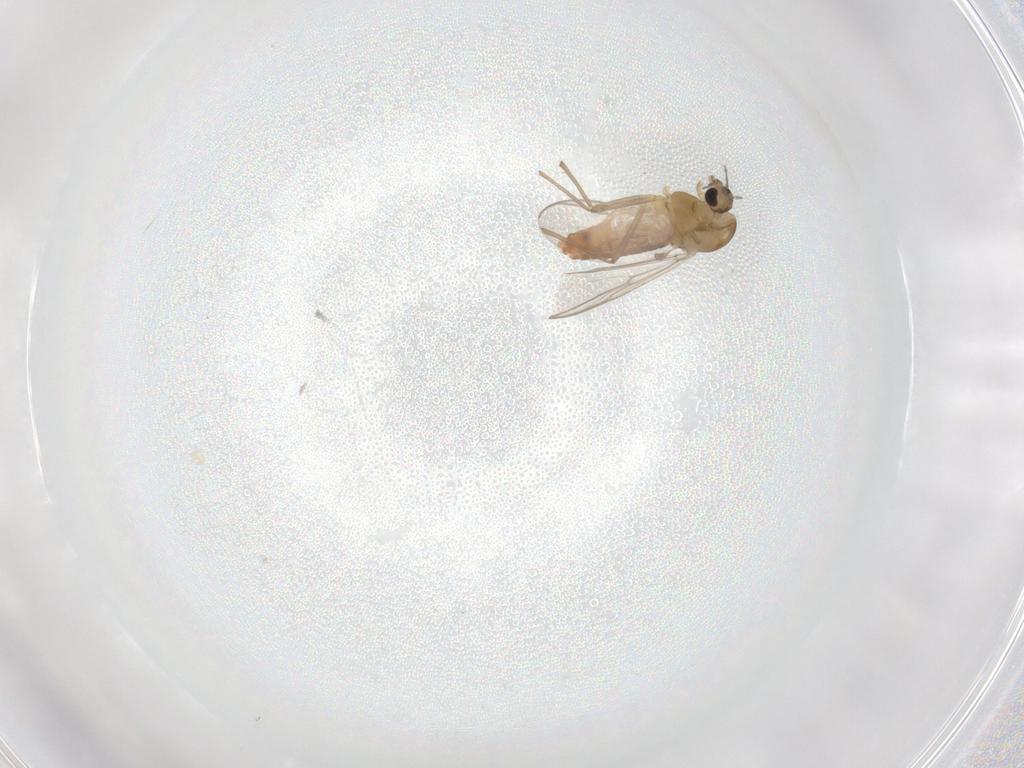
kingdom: Animalia
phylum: Arthropoda
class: Insecta
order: Diptera
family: Chironomidae
